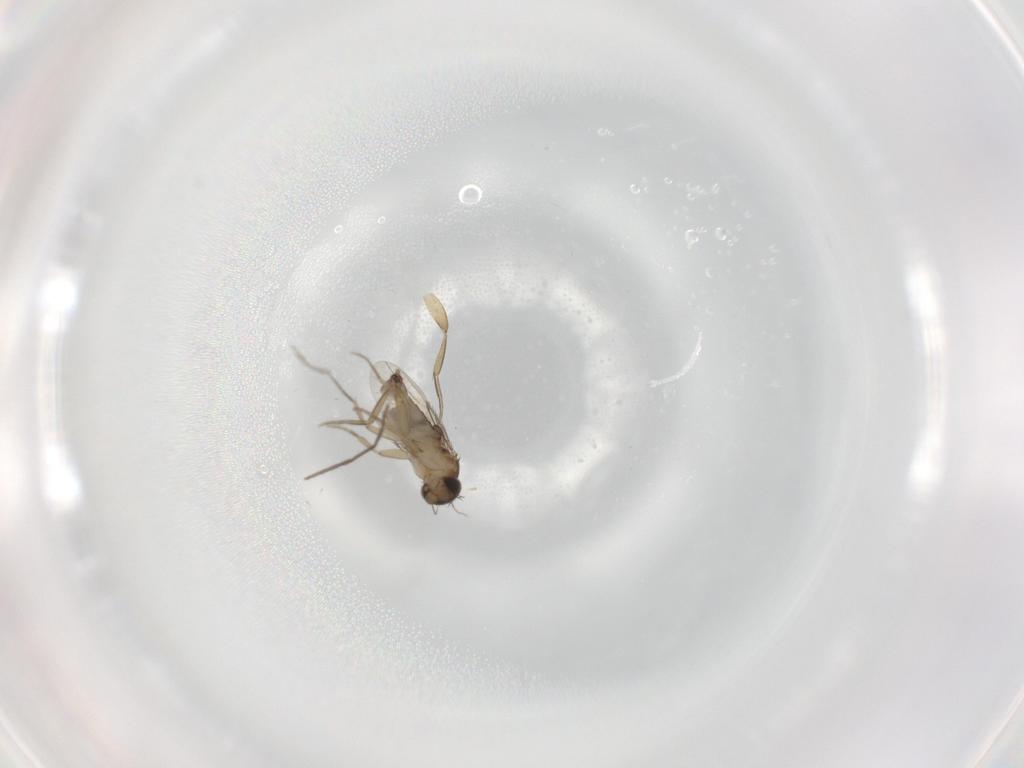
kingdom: Animalia
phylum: Arthropoda
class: Insecta
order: Diptera
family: Phoridae
